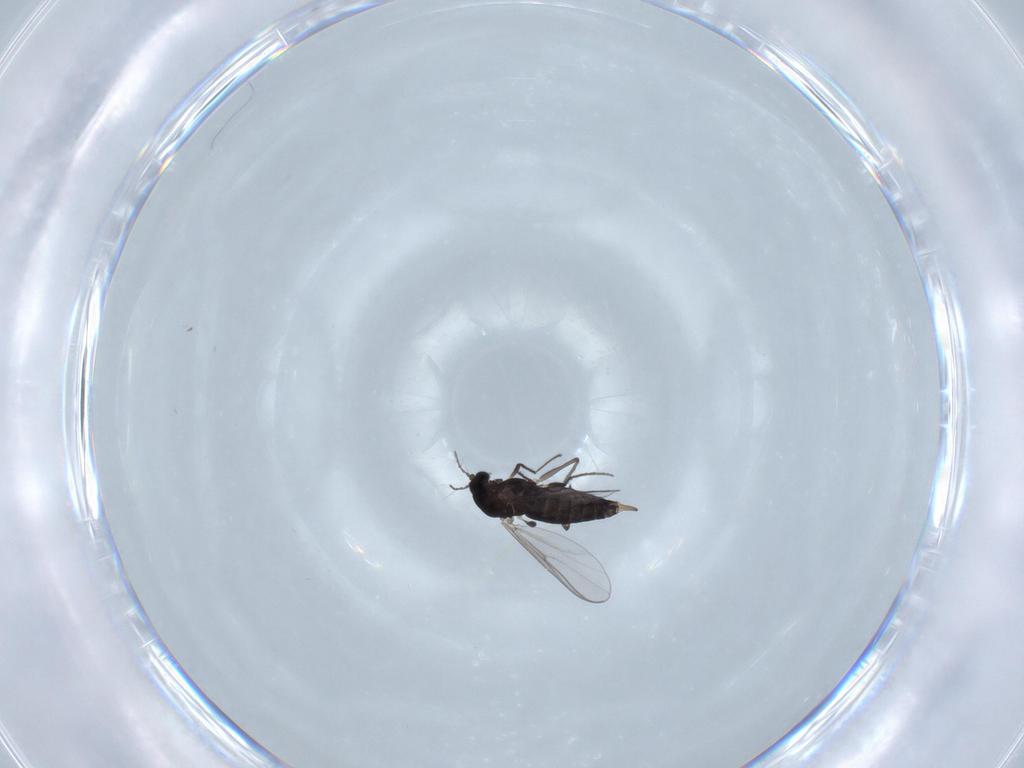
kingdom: Animalia
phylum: Arthropoda
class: Insecta
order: Diptera
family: Chironomidae
